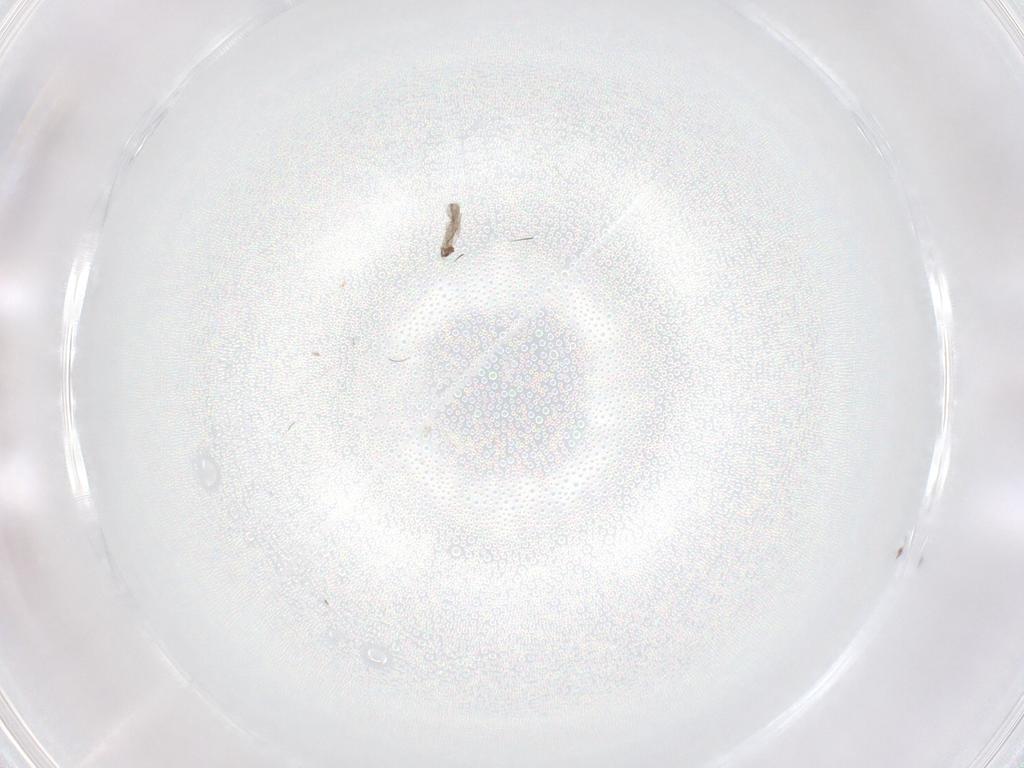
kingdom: Animalia
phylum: Arthropoda
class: Insecta
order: Diptera
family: Cecidomyiidae
